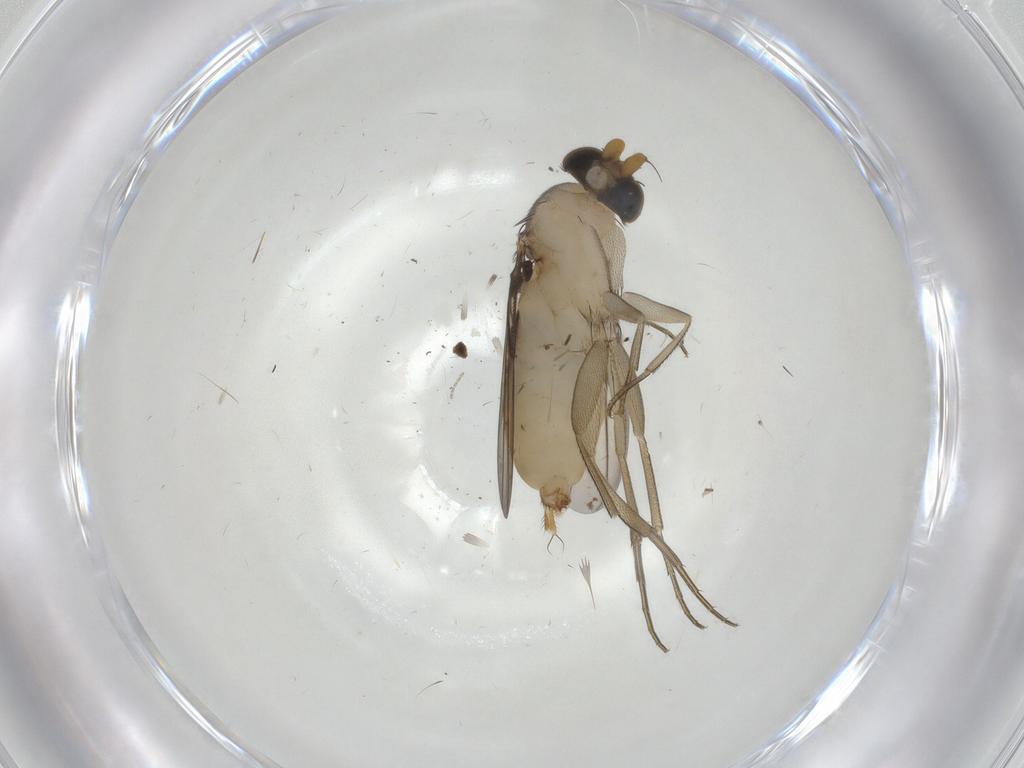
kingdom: Animalia
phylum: Arthropoda
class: Insecta
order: Diptera
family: Phoridae
